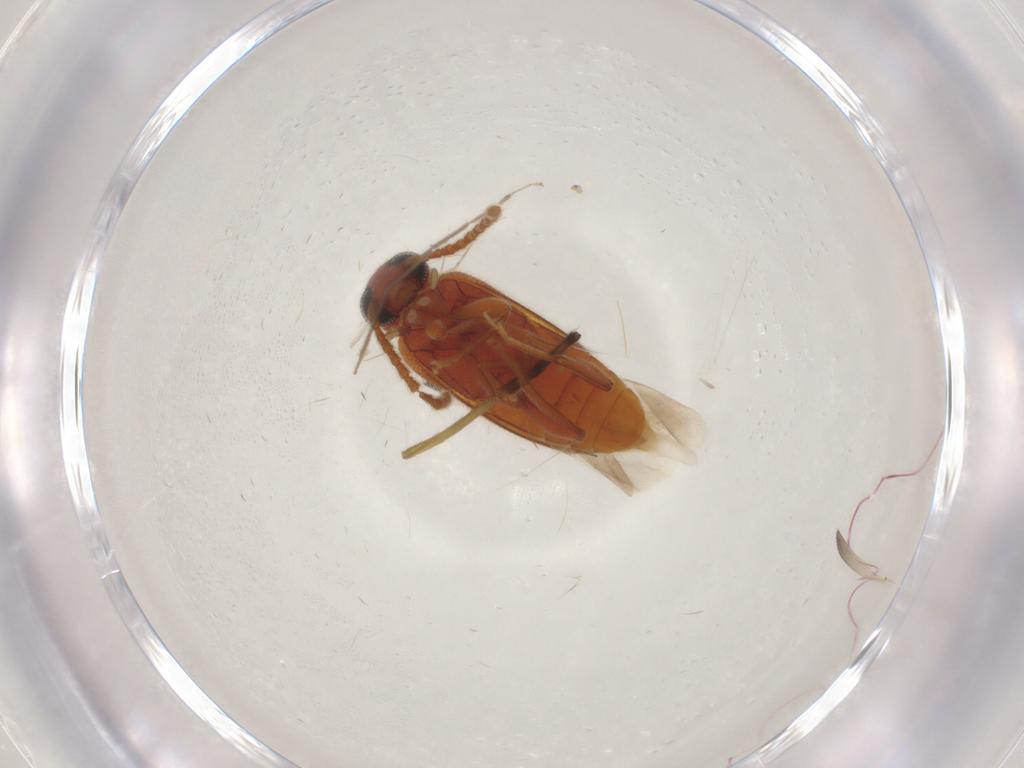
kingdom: Animalia
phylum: Arthropoda
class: Insecta
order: Coleoptera
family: Aderidae
